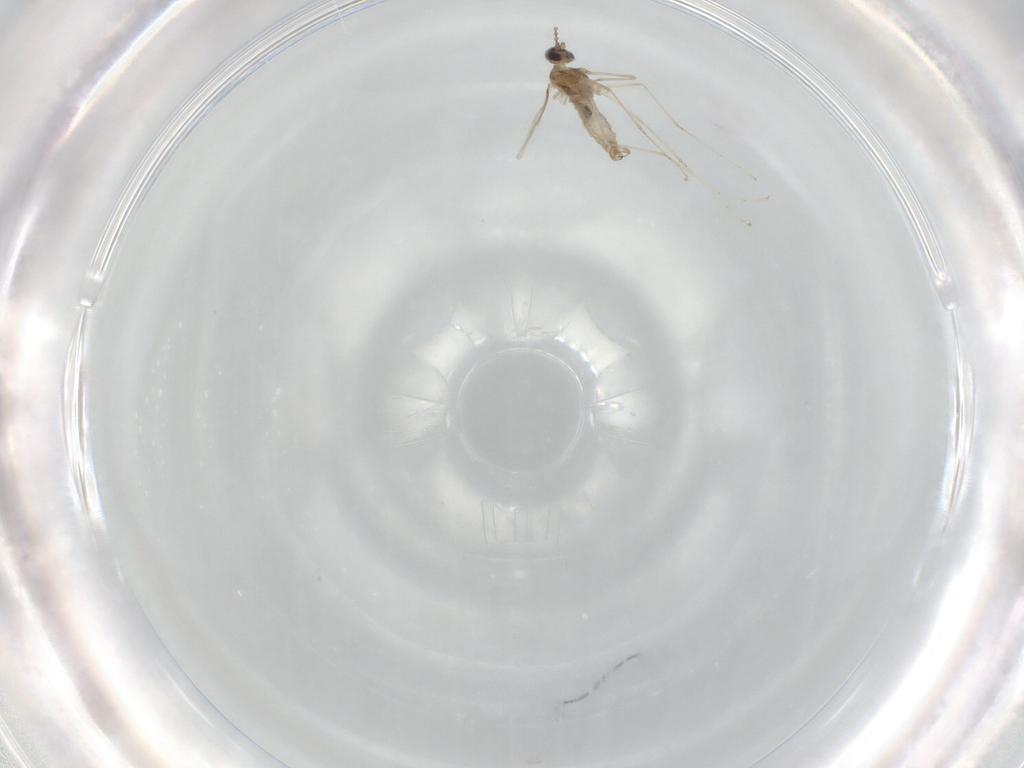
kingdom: Animalia
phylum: Arthropoda
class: Insecta
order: Diptera
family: Cecidomyiidae
